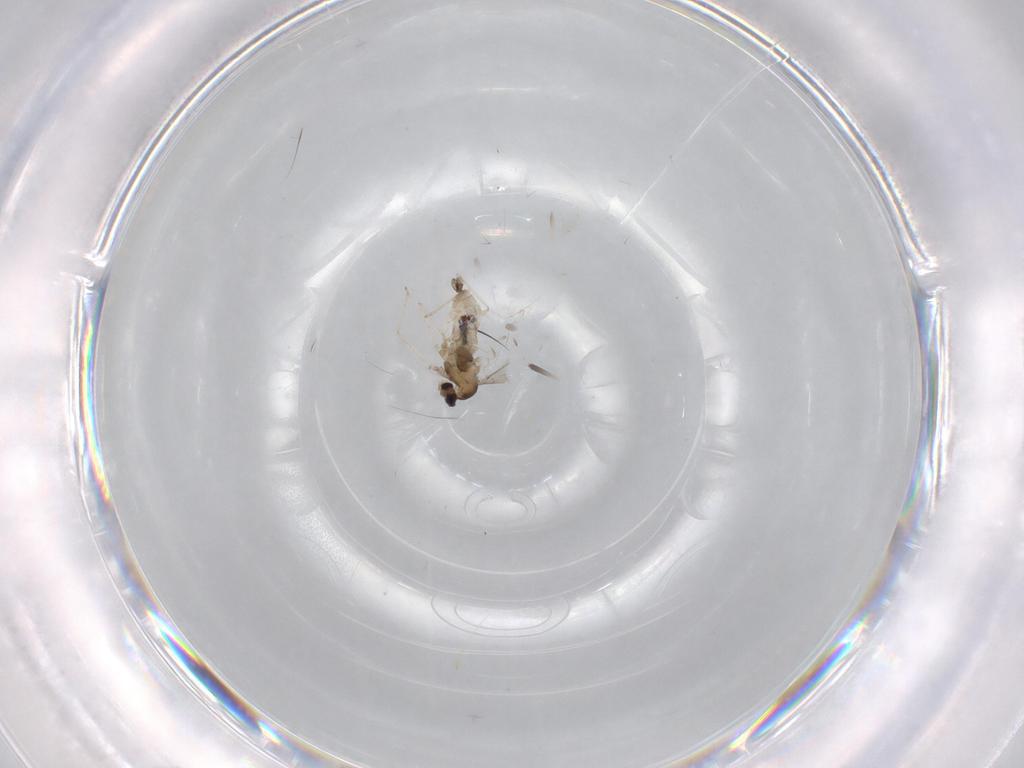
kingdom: Animalia
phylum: Arthropoda
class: Insecta
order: Diptera
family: Cecidomyiidae
